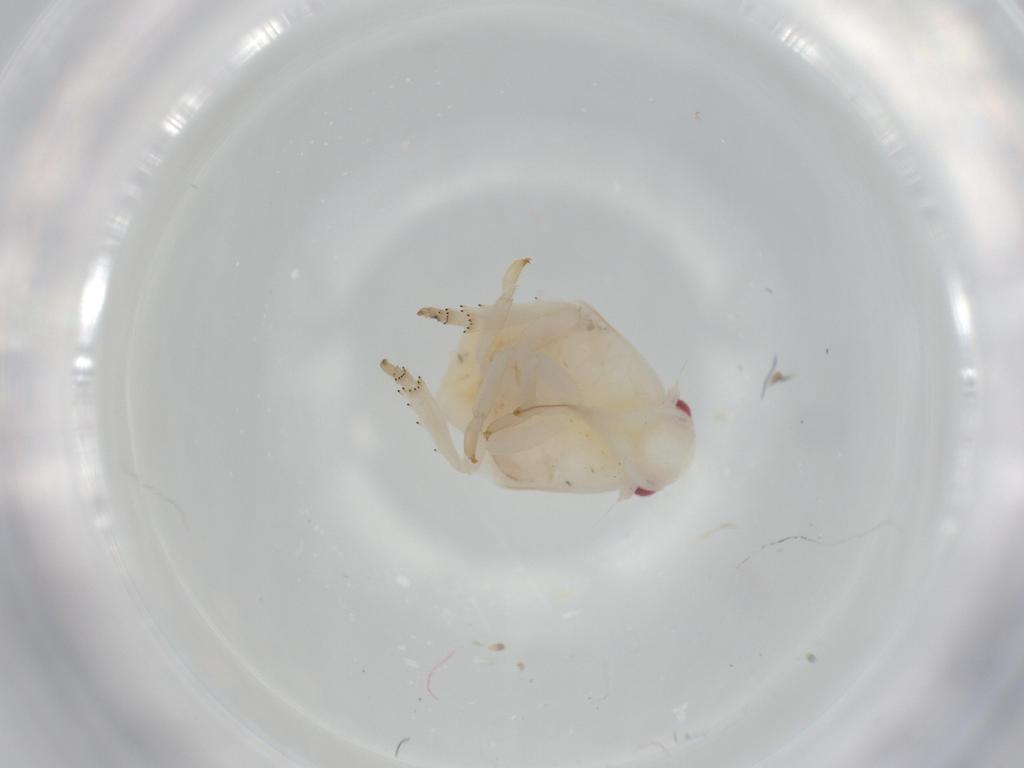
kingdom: Animalia
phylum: Arthropoda
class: Insecta
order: Hemiptera
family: Flatidae
